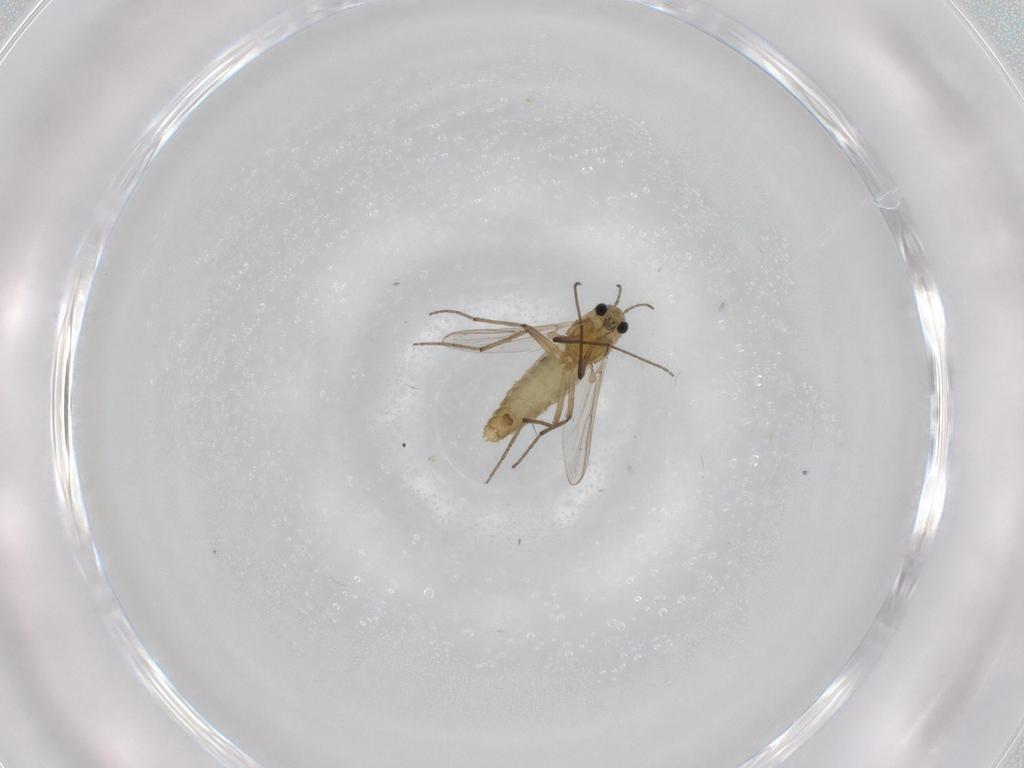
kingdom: Animalia
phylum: Arthropoda
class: Insecta
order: Diptera
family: Chironomidae
